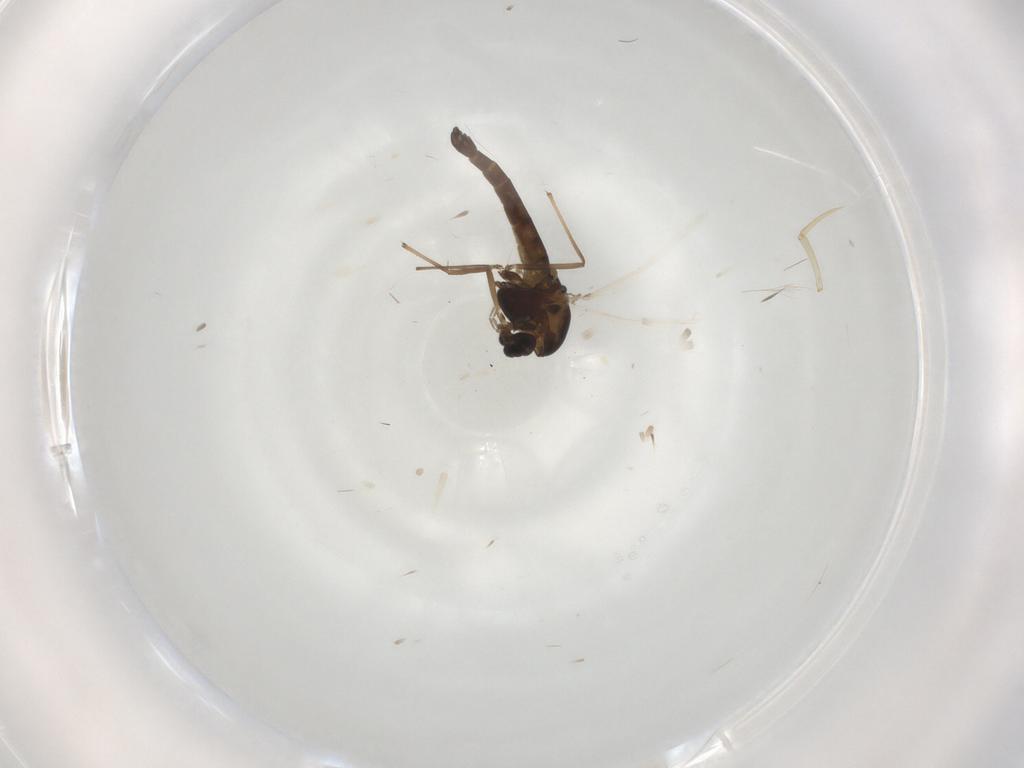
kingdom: Animalia
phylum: Arthropoda
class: Insecta
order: Diptera
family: Chironomidae
